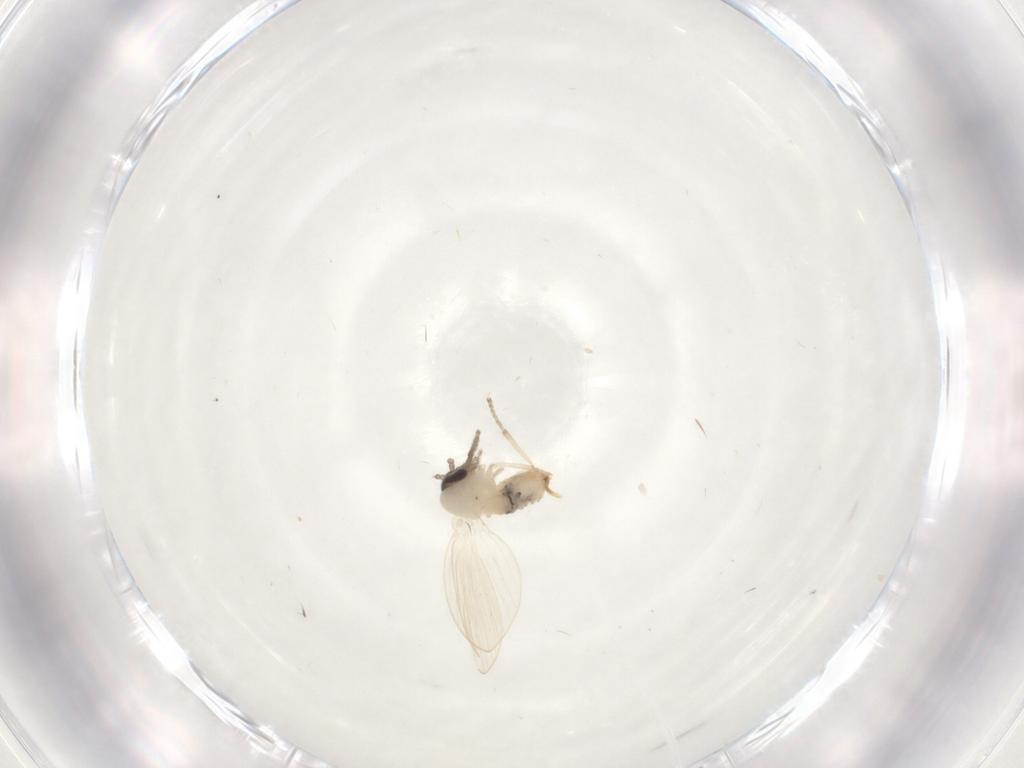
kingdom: Animalia
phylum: Arthropoda
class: Insecta
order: Diptera
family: Psychodidae
